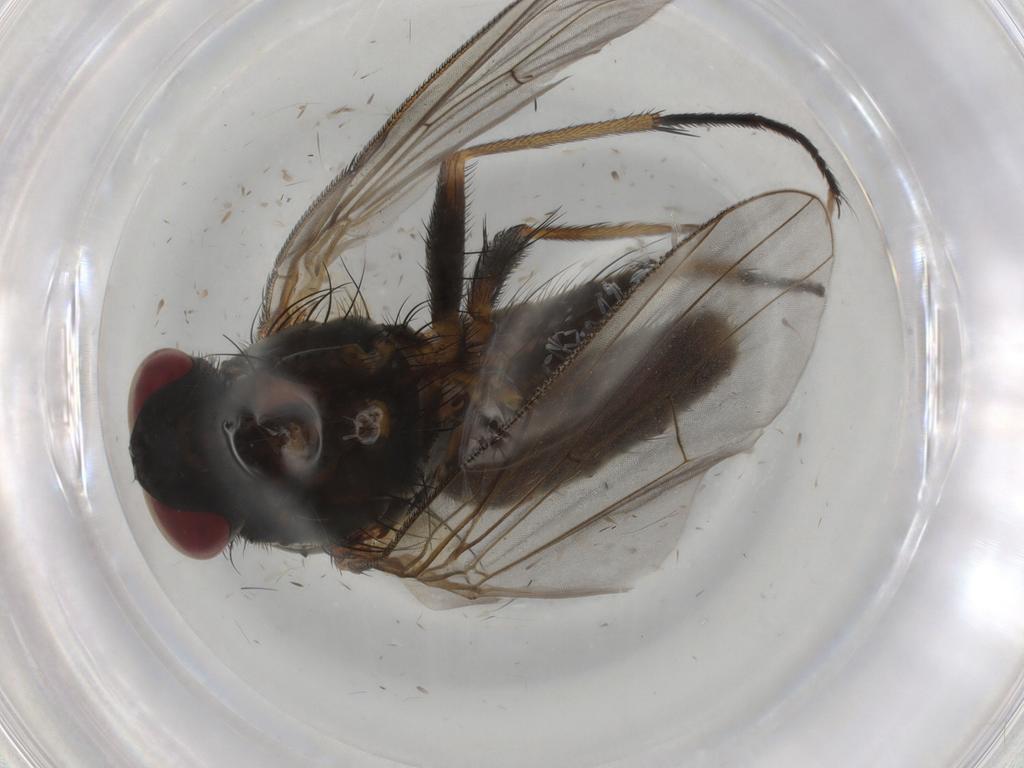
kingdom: Animalia
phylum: Arthropoda
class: Insecta
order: Diptera
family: Muscidae
